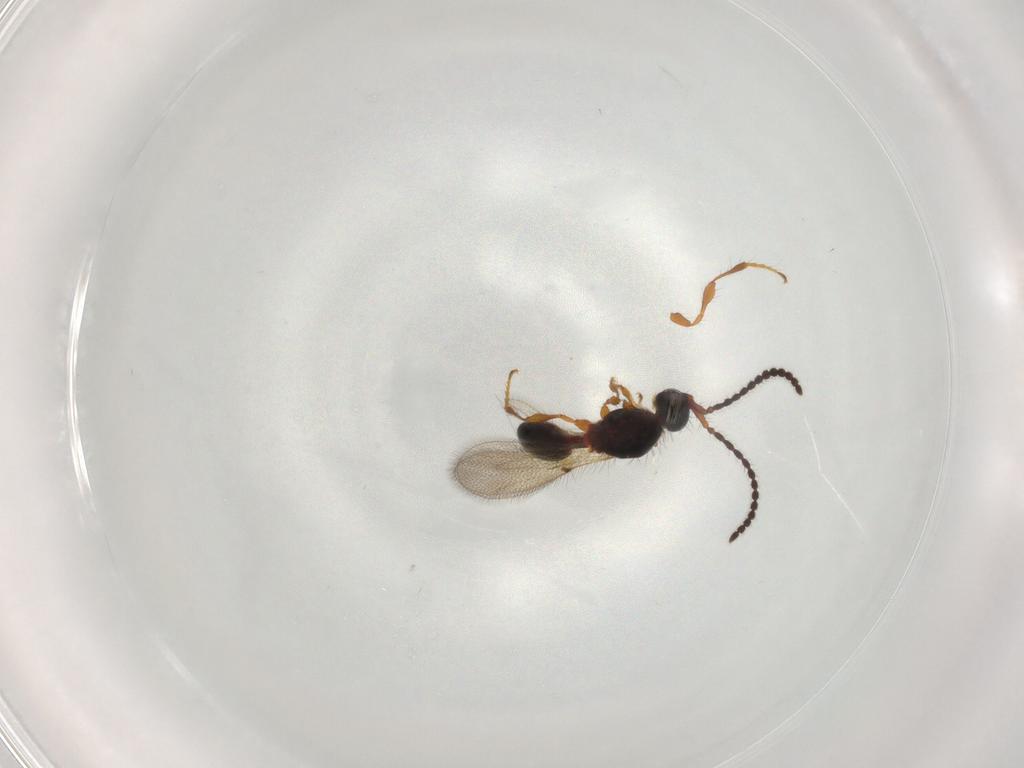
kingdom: Animalia
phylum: Arthropoda
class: Insecta
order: Hymenoptera
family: Diapriidae
